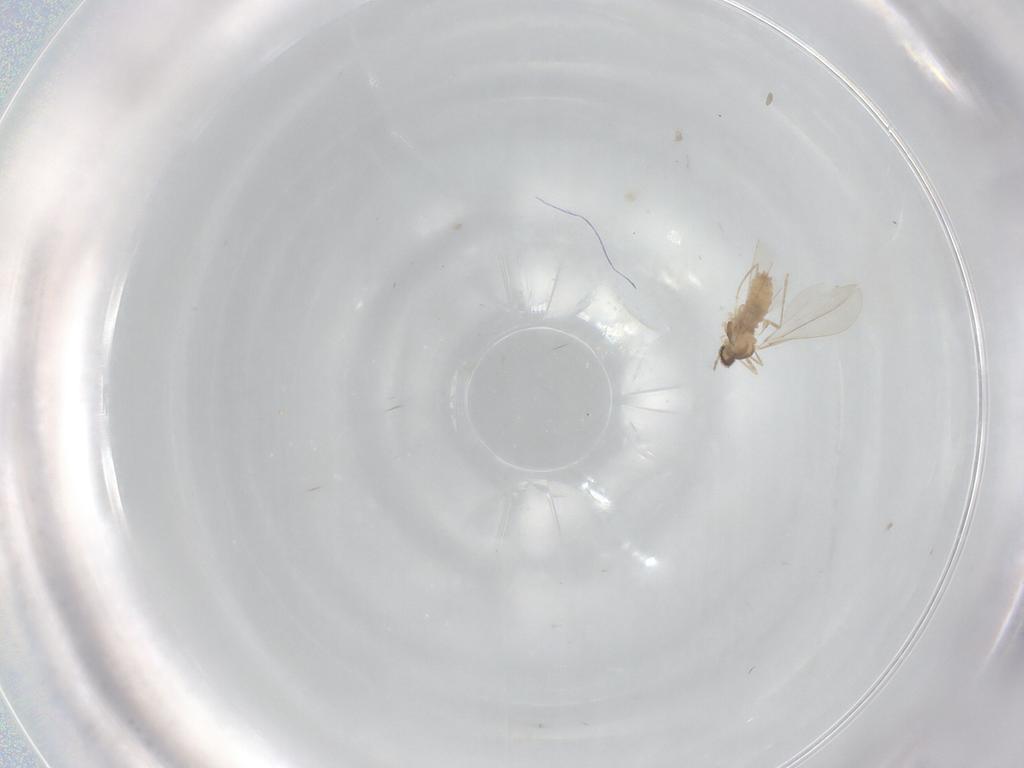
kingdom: Animalia
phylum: Arthropoda
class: Insecta
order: Diptera
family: Cecidomyiidae
